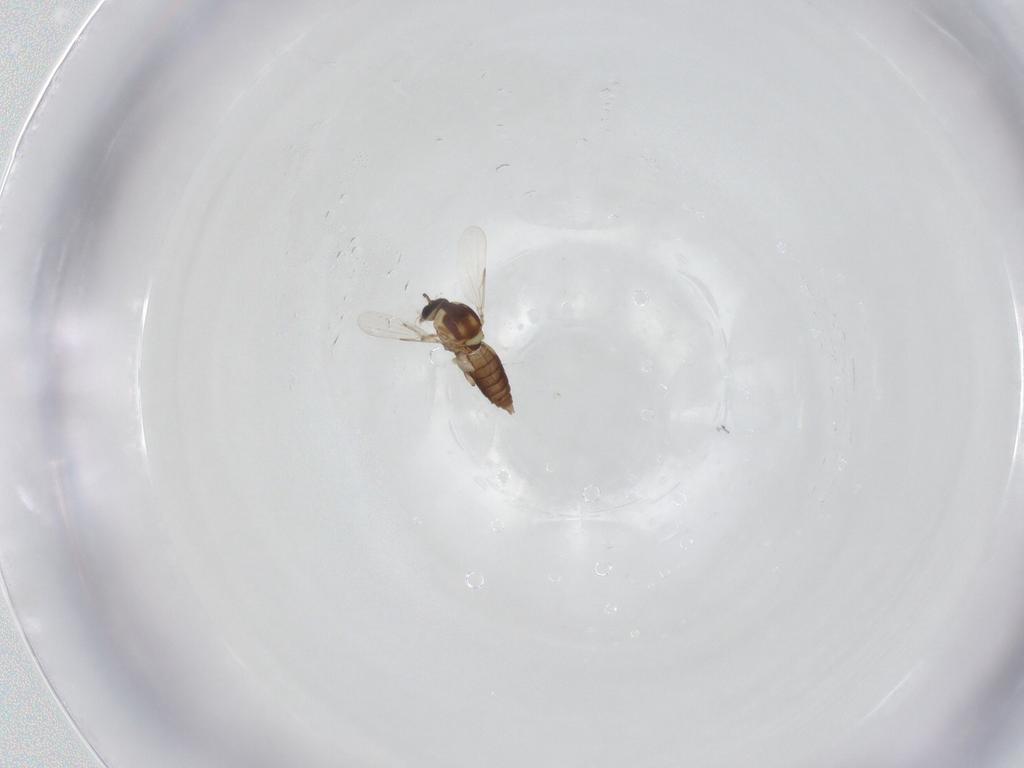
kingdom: Animalia
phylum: Arthropoda
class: Insecta
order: Diptera
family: Ceratopogonidae
